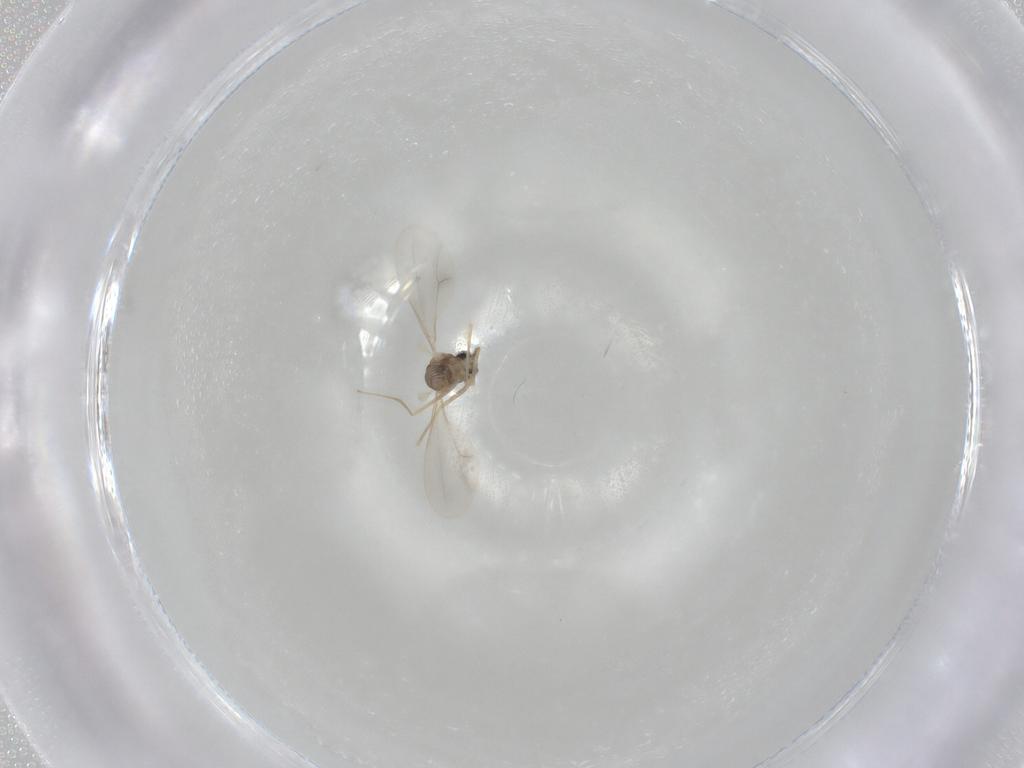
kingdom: Animalia
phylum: Arthropoda
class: Insecta
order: Diptera
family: Cecidomyiidae
